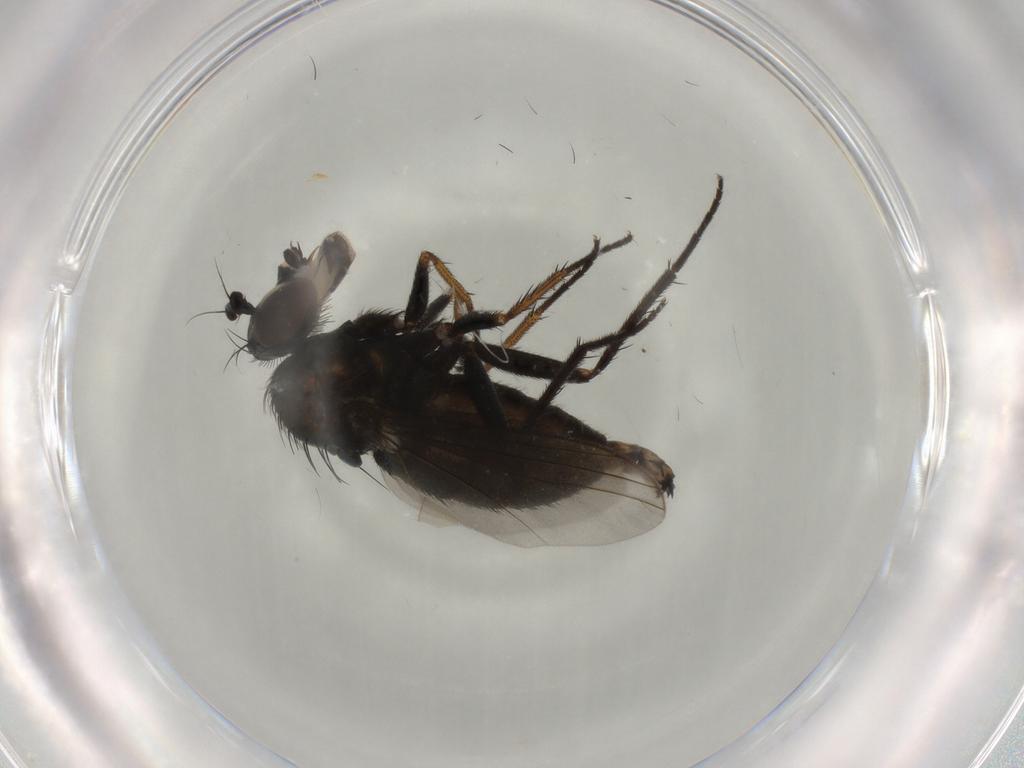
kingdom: Animalia
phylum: Arthropoda
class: Insecta
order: Diptera
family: Dolichopodidae
